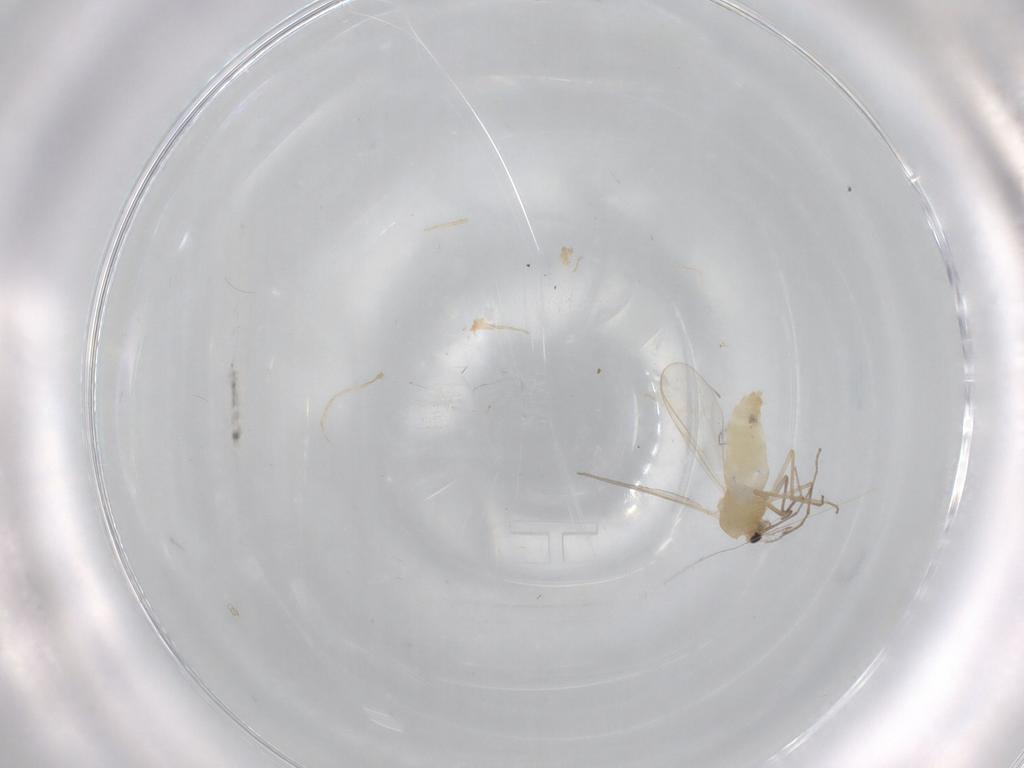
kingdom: Animalia
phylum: Arthropoda
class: Insecta
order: Diptera
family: Chironomidae
